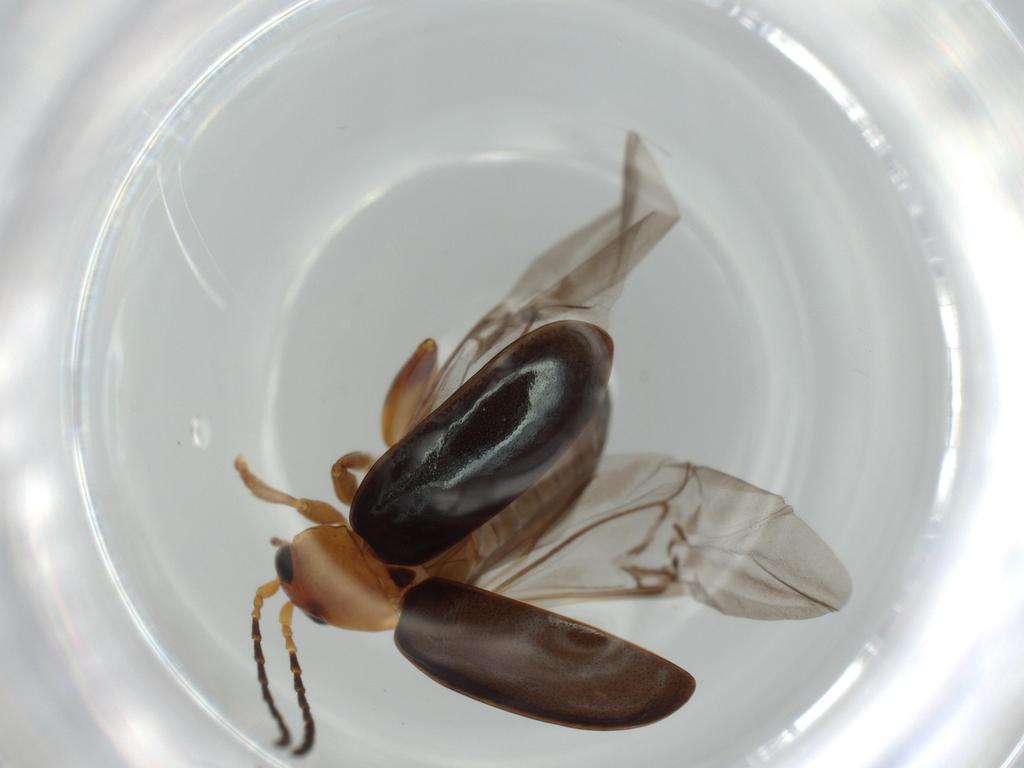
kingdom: Animalia
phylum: Arthropoda
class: Insecta
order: Coleoptera
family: Chrysomelidae
